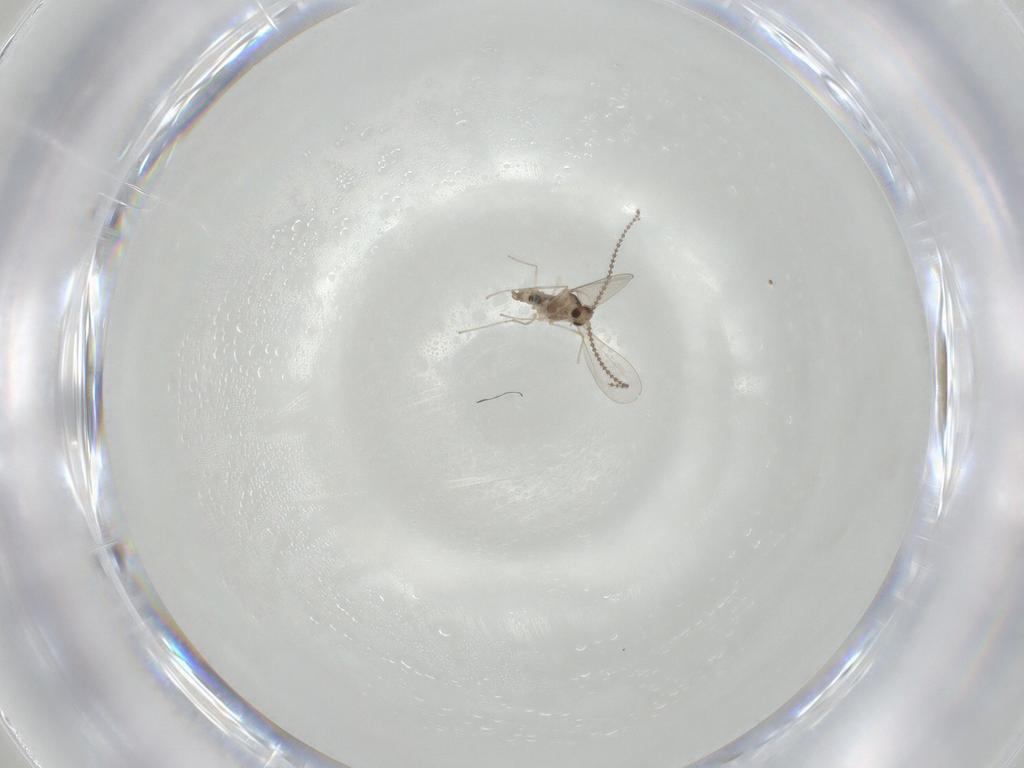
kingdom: Animalia
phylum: Arthropoda
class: Insecta
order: Diptera
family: Cecidomyiidae
